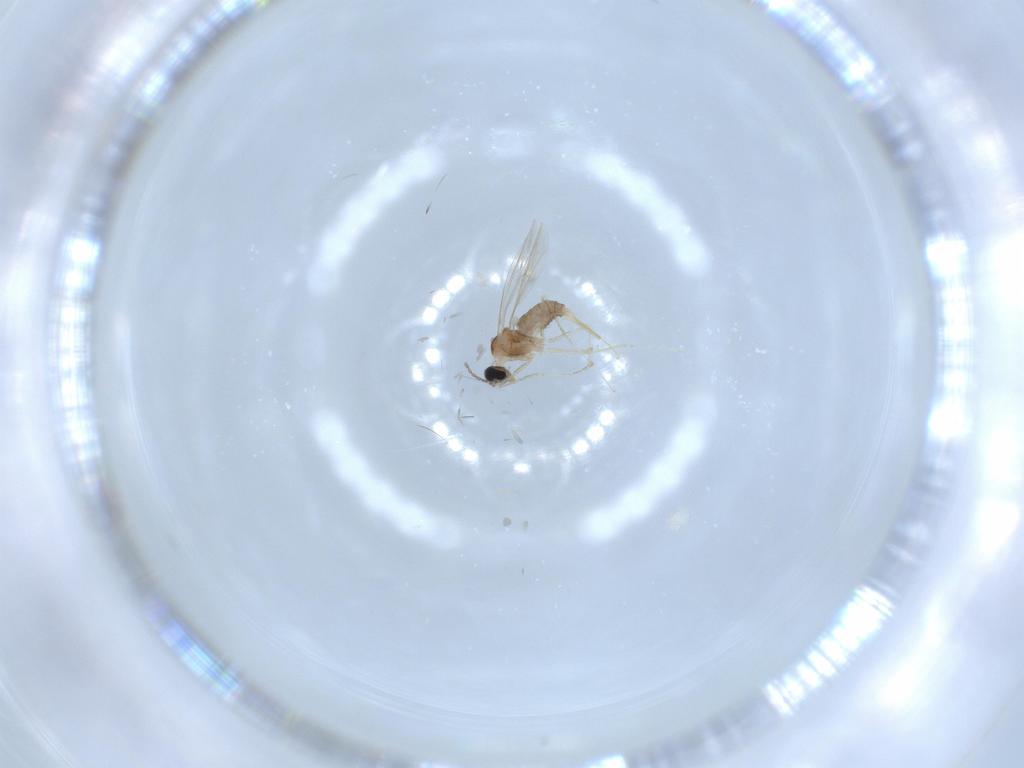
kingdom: Animalia
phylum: Arthropoda
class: Insecta
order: Diptera
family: Cecidomyiidae
